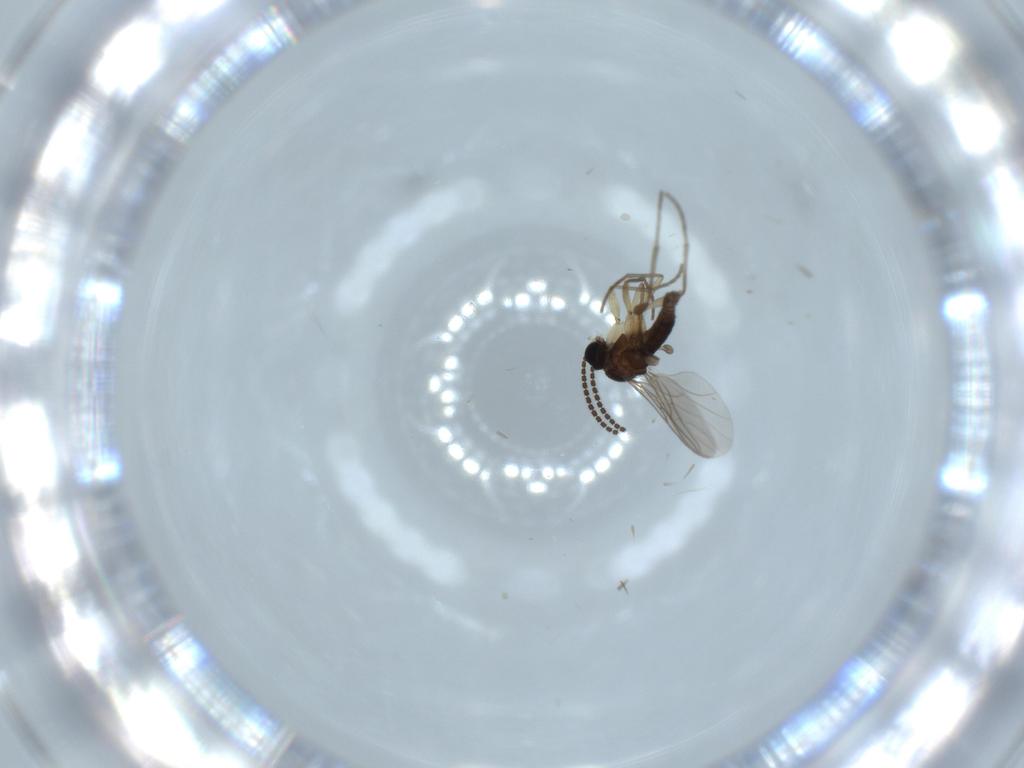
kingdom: Animalia
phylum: Arthropoda
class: Insecta
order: Diptera
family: Sciaridae
